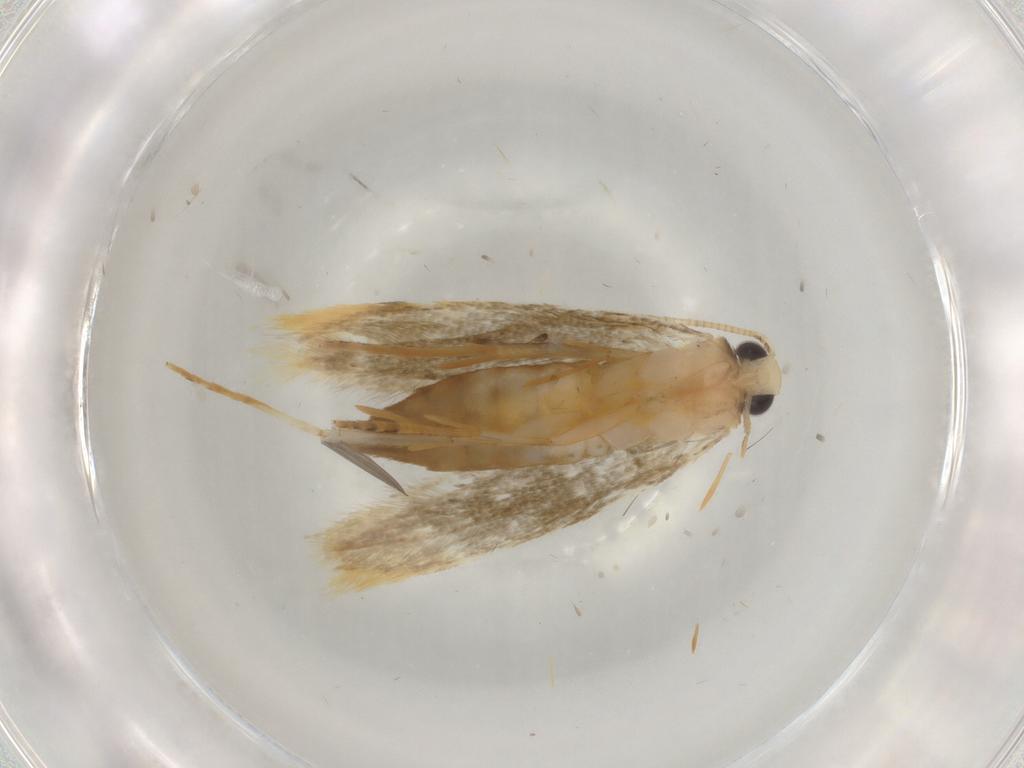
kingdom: Animalia
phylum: Arthropoda
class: Insecta
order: Lepidoptera
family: Tineidae
